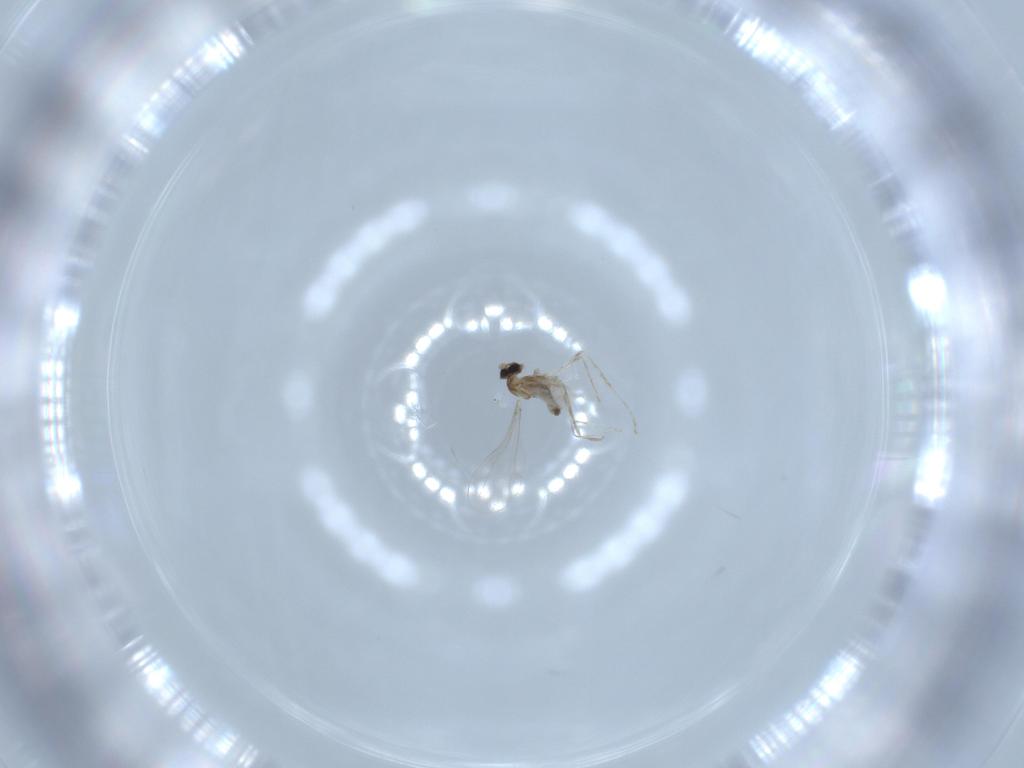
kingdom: Animalia
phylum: Arthropoda
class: Insecta
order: Diptera
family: Cecidomyiidae
